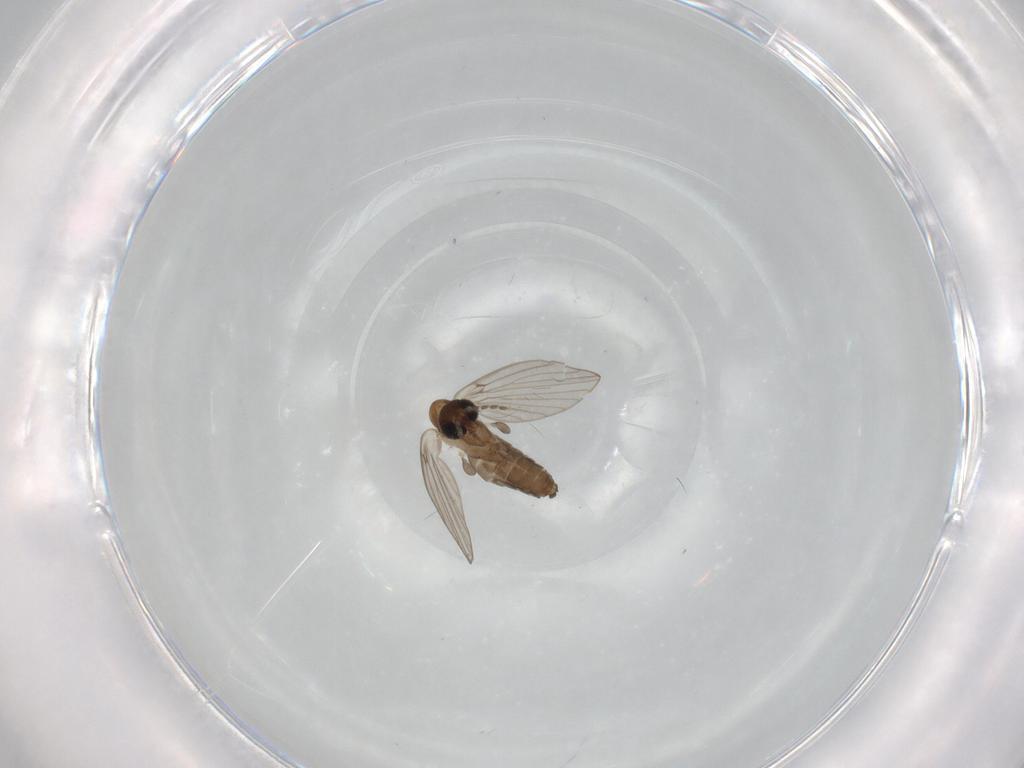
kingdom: Animalia
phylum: Arthropoda
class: Insecta
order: Diptera
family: Psychodidae
